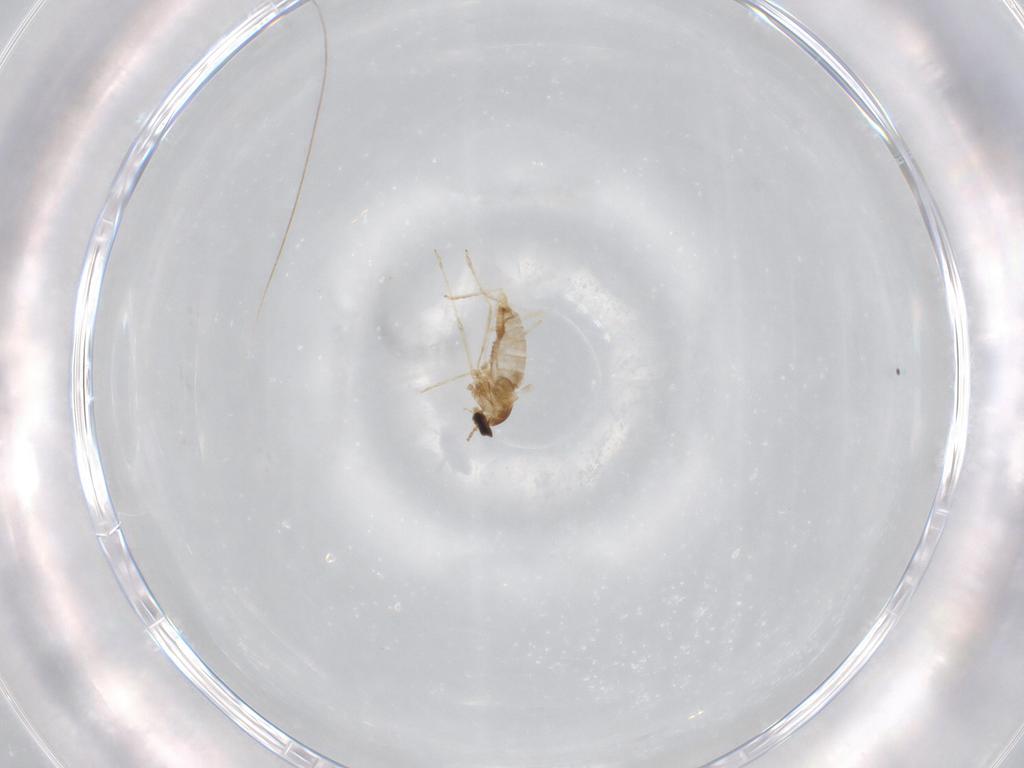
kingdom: Animalia
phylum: Arthropoda
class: Insecta
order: Diptera
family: Cecidomyiidae
